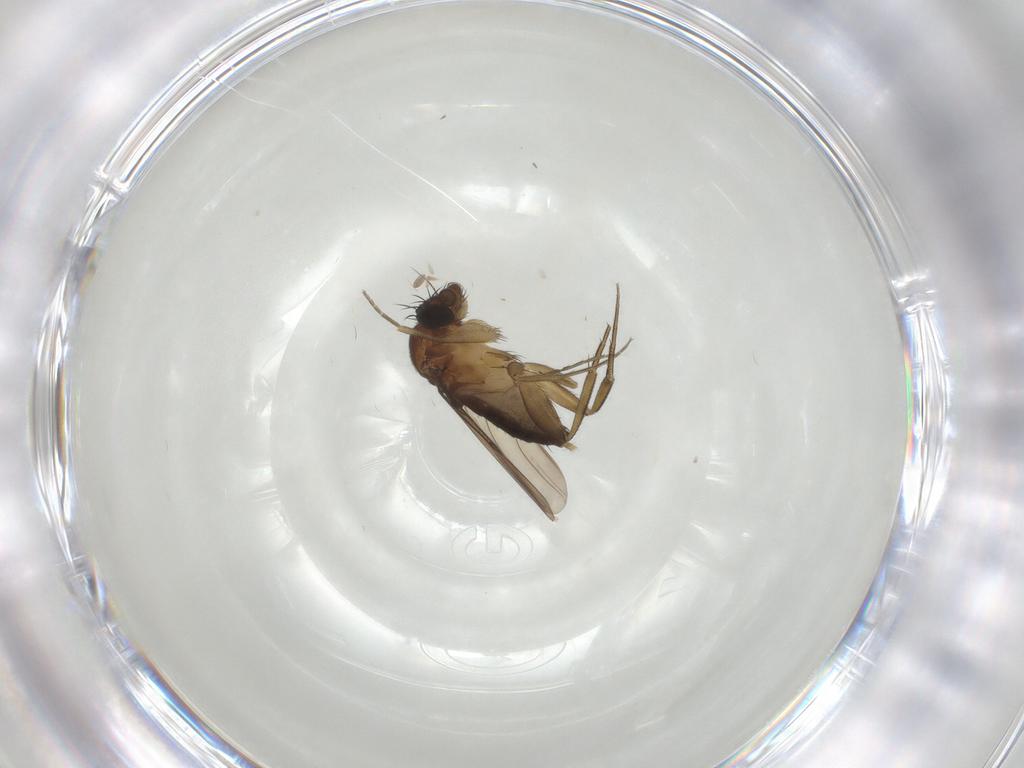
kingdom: Animalia
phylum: Arthropoda
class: Insecta
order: Diptera
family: Phoridae
